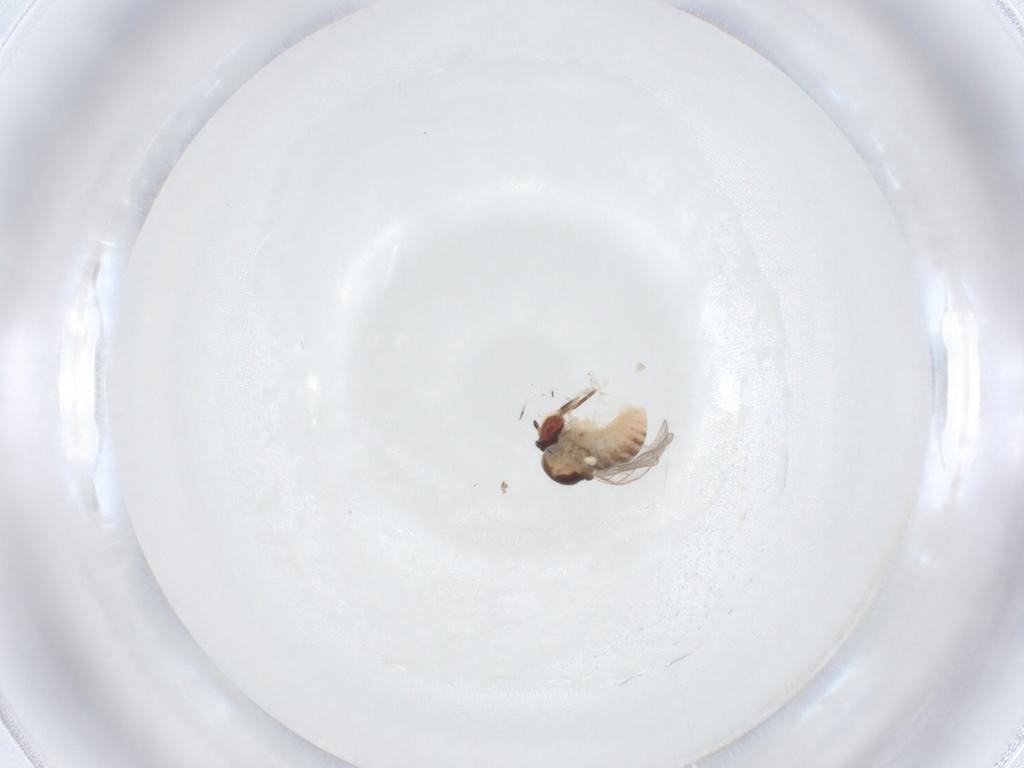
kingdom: Animalia
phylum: Arthropoda
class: Insecta
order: Diptera
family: Mythicomyiidae
